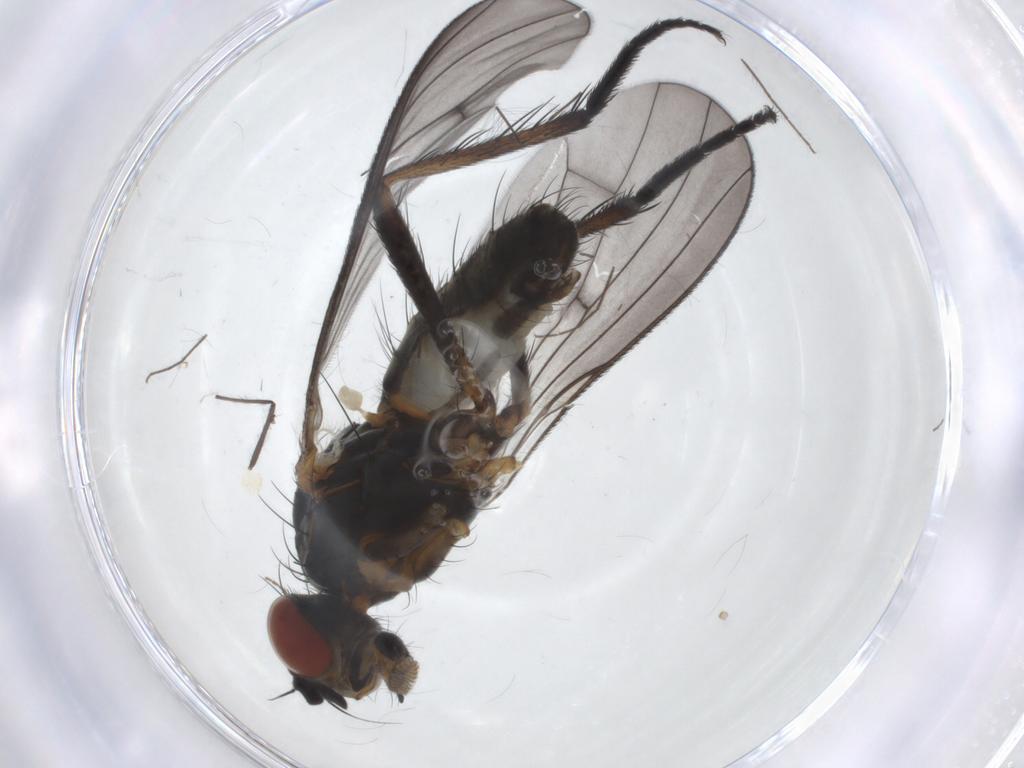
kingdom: Animalia
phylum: Arthropoda
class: Insecta
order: Diptera
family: Anthomyiidae
